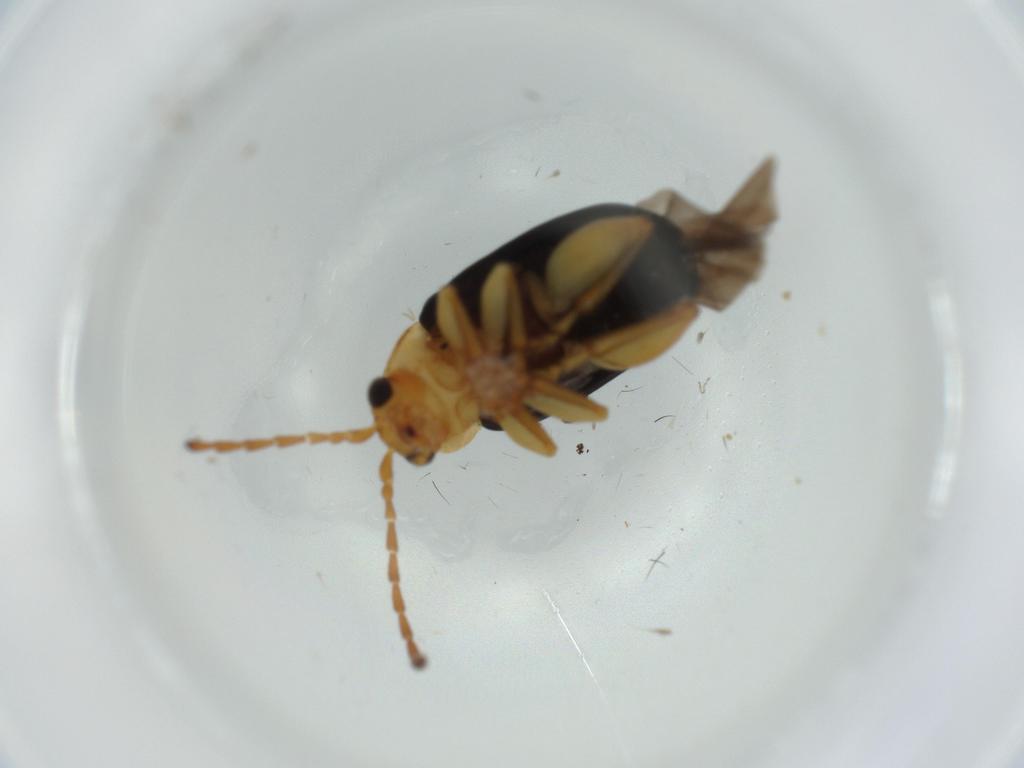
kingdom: Animalia
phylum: Arthropoda
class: Insecta
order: Coleoptera
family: Chrysomelidae
